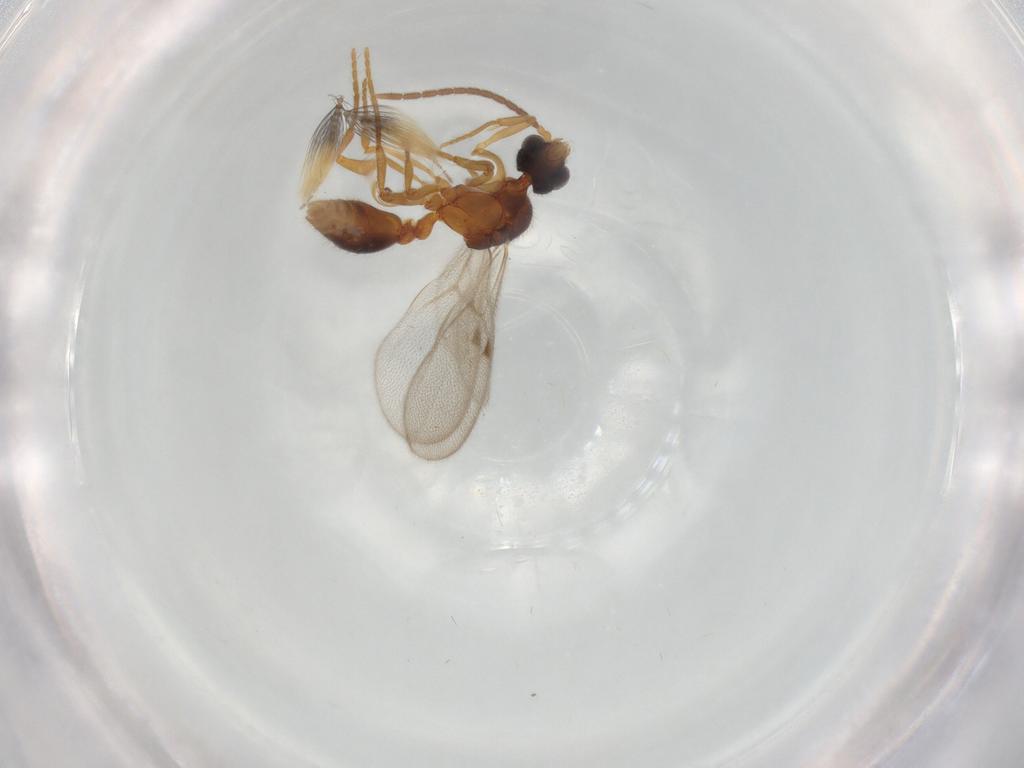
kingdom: Animalia
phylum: Arthropoda
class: Insecta
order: Hymenoptera
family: Formicidae
